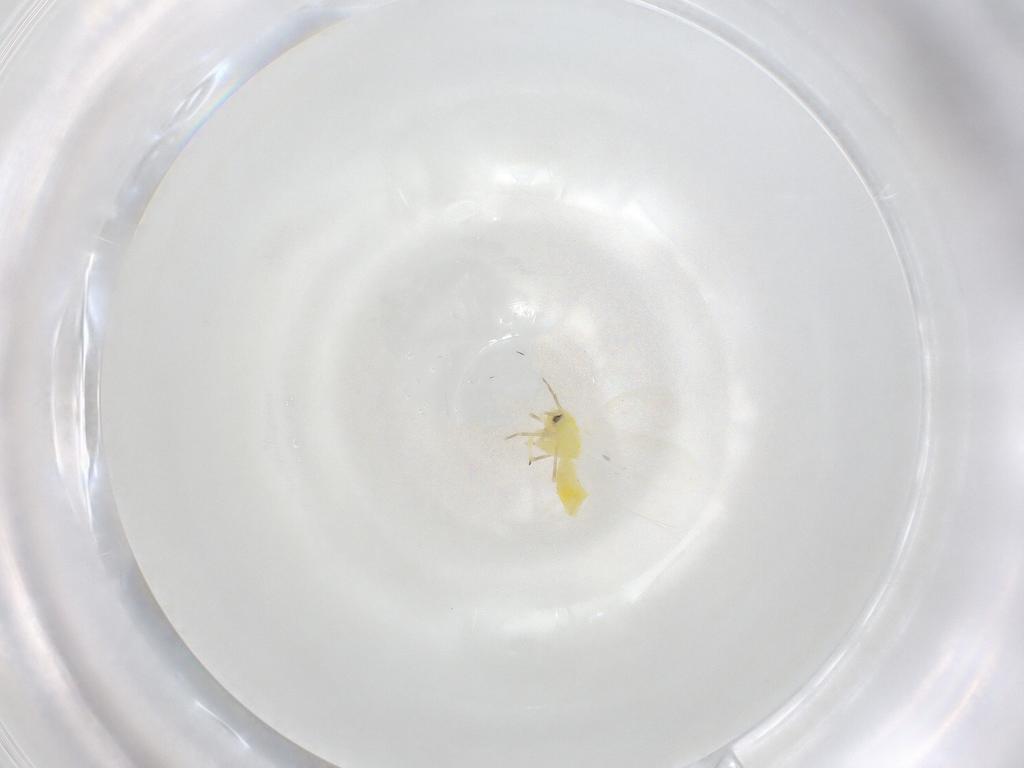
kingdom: Animalia
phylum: Arthropoda
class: Insecta
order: Hemiptera
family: Aleyrodidae
